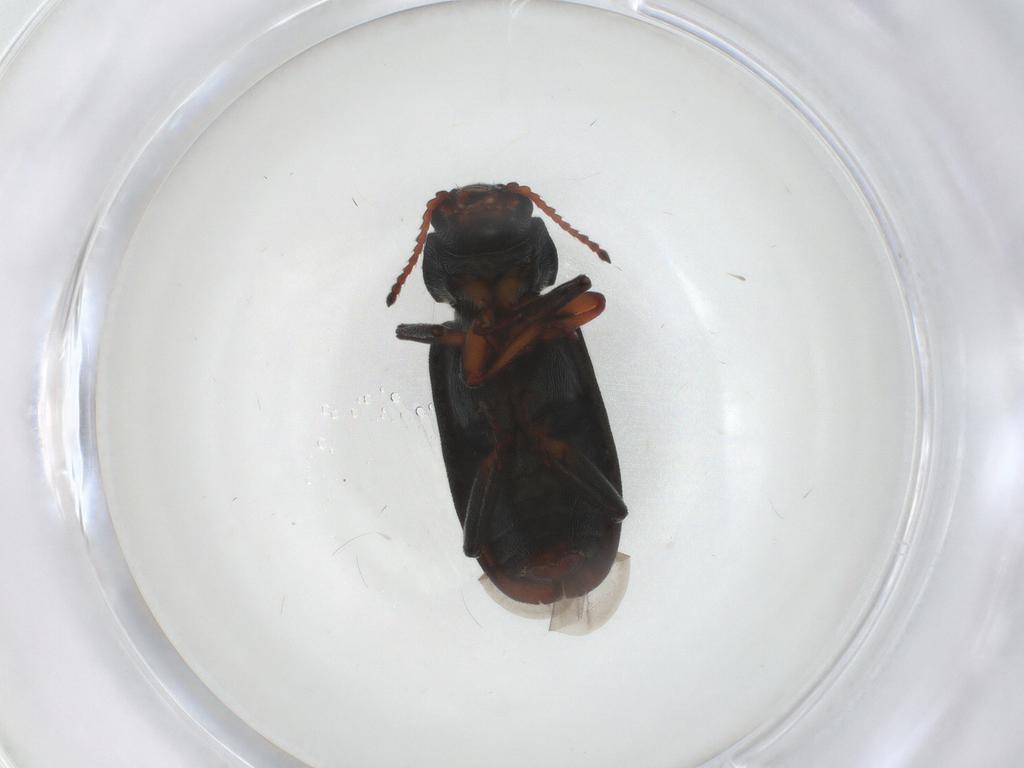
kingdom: Animalia
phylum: Arthropoda
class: Insecta
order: Coleoptera
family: Melyridae
